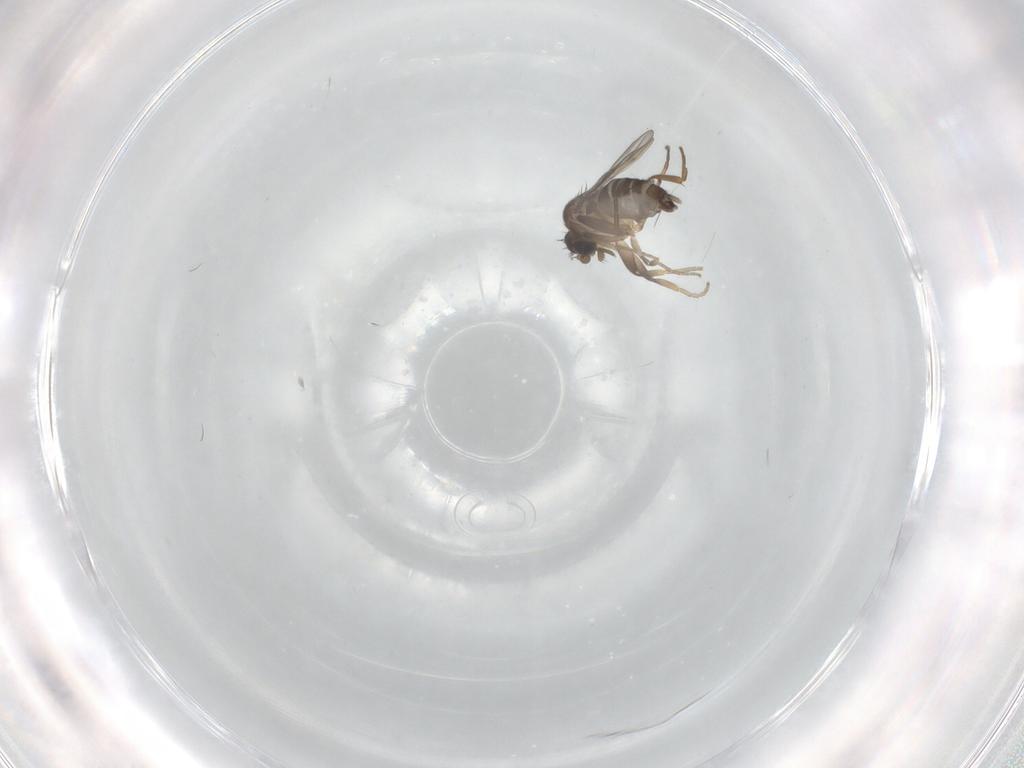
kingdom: Animalia
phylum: Arthropoda
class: Insecta
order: Diptera
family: Phoridae
